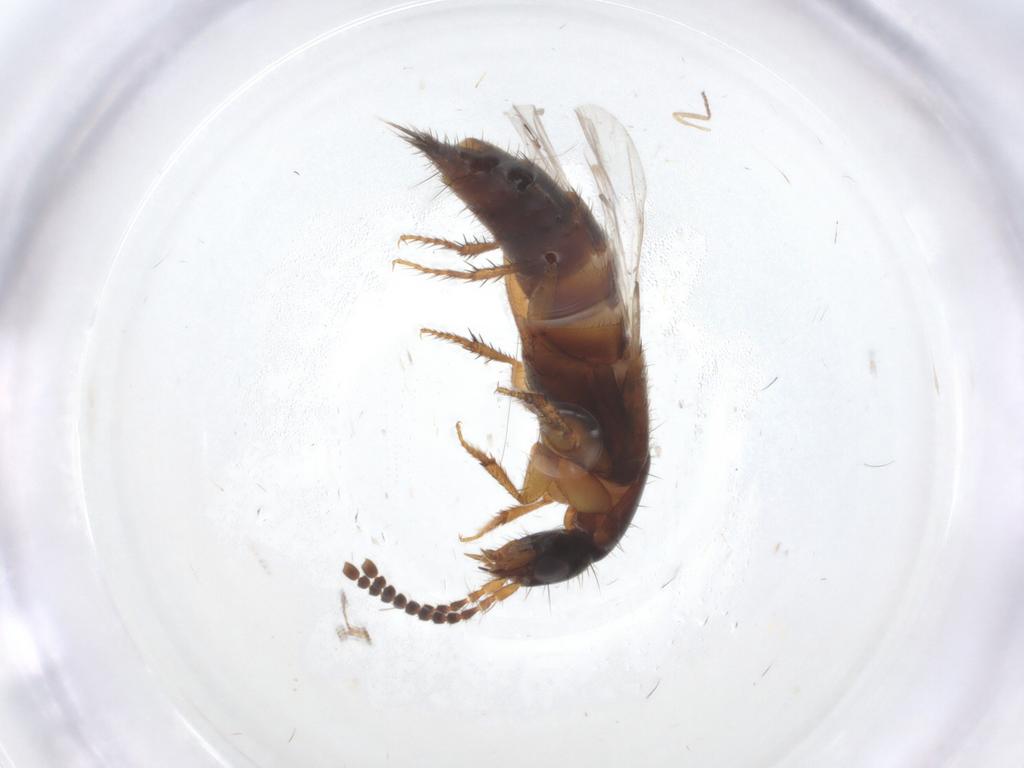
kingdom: Animalia
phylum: Arthropoda
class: Insecta
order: Coleoptera
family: Staphylinidae
